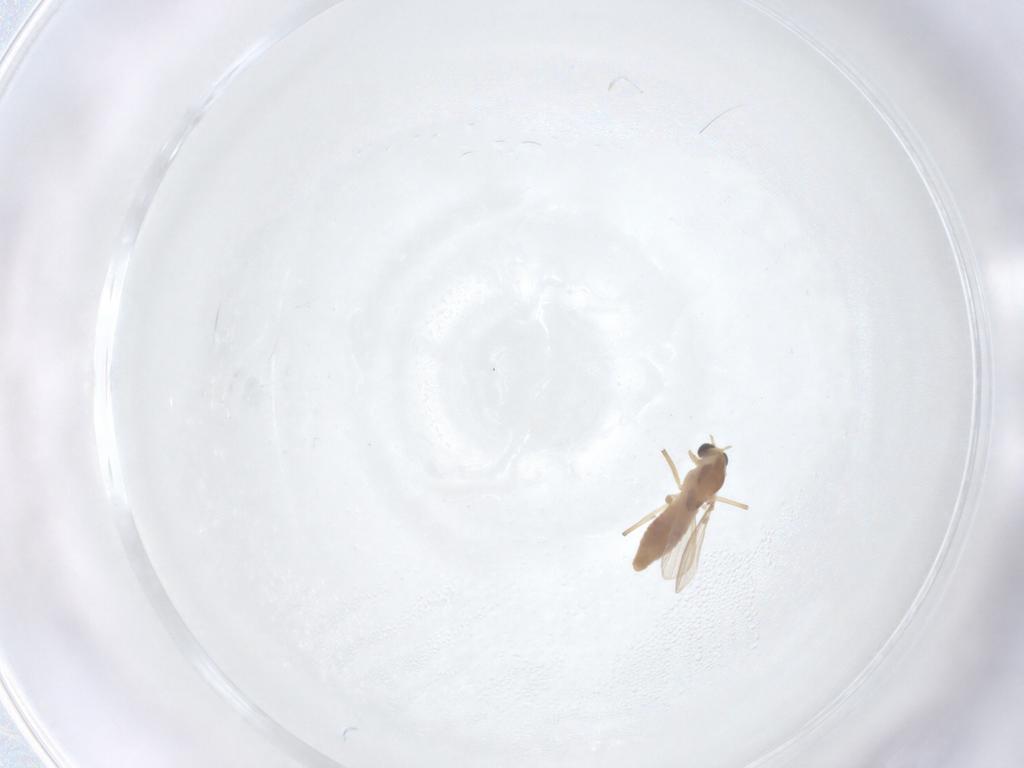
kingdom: Animalia
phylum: Arthropoda
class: Insecta
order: Diptera
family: Chironomidae
